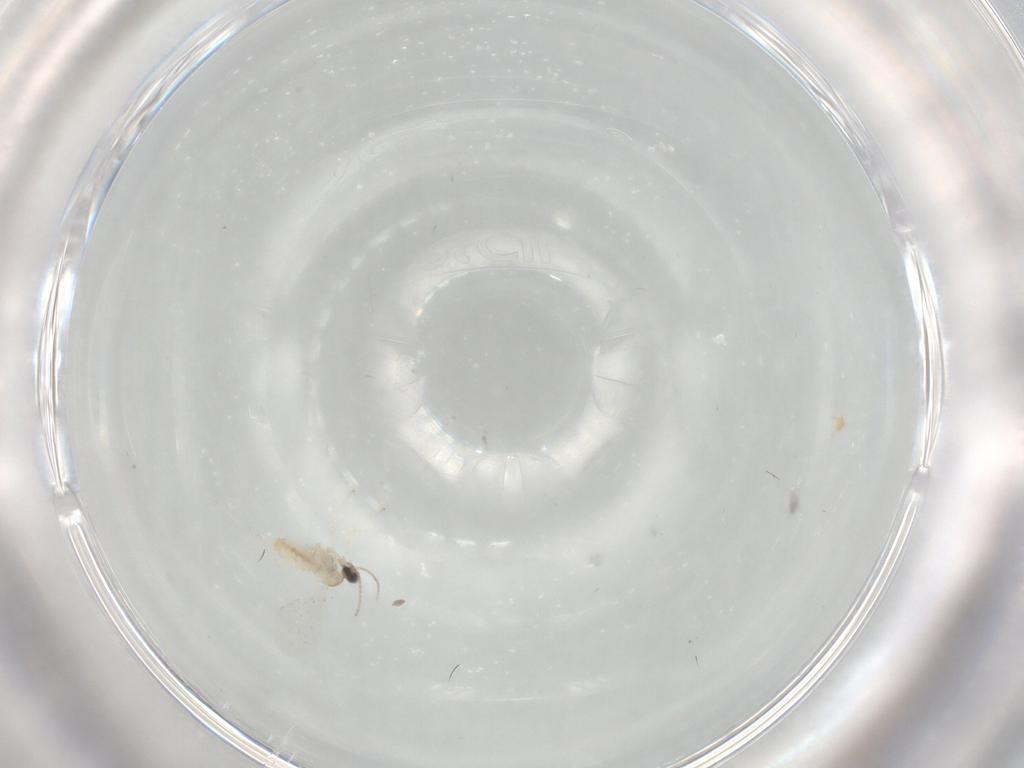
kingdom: Animalia
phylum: Arthropoda
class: Insecta
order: Diptera
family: Cecidomyiidae
